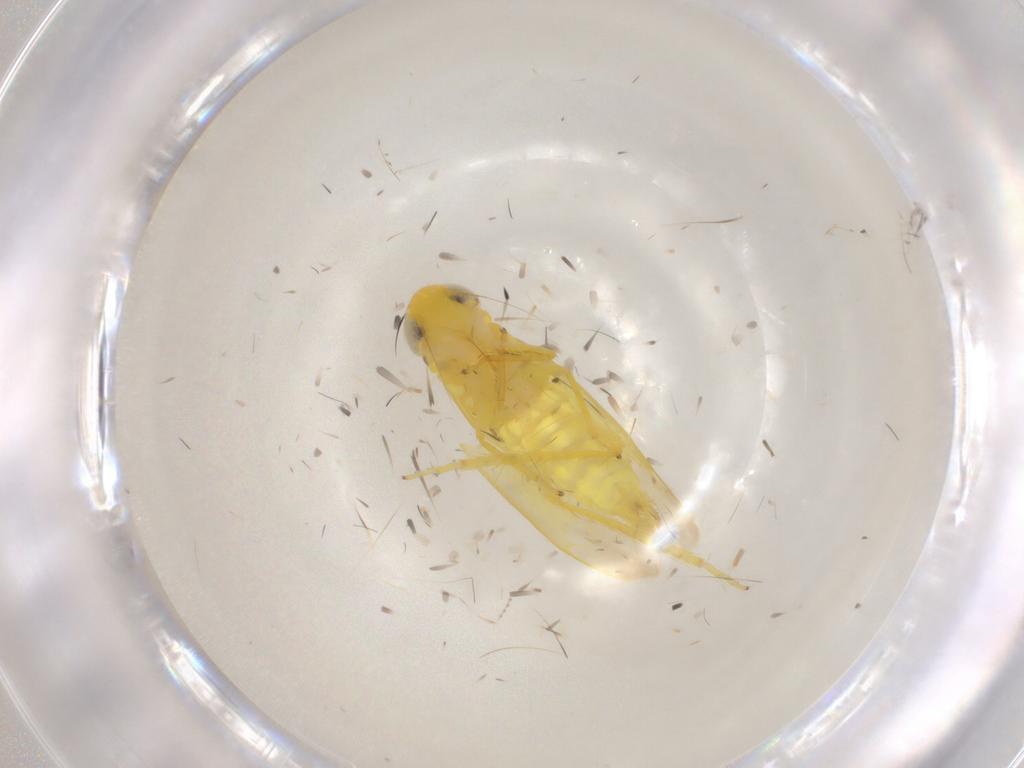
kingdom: Animalia
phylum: Arthropoda
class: Insecta
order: Hemiptera
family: Cicadellidae
